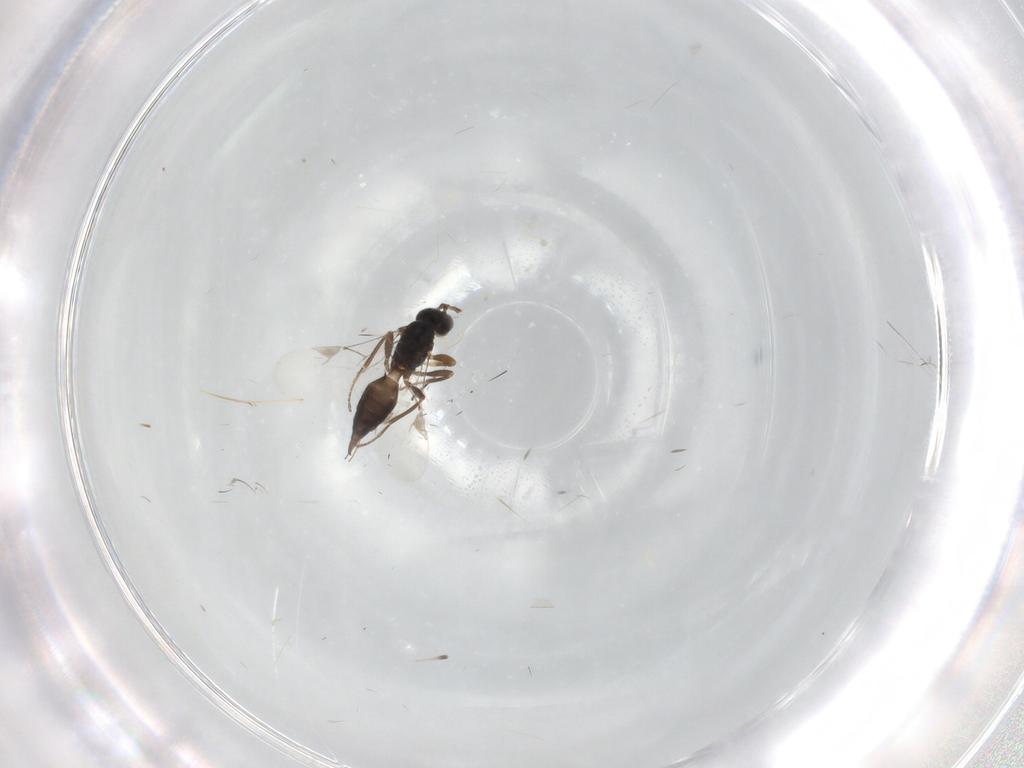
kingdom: Animalia
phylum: Arthropoda
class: Insecta
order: Hymenoptera
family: Braconidae
